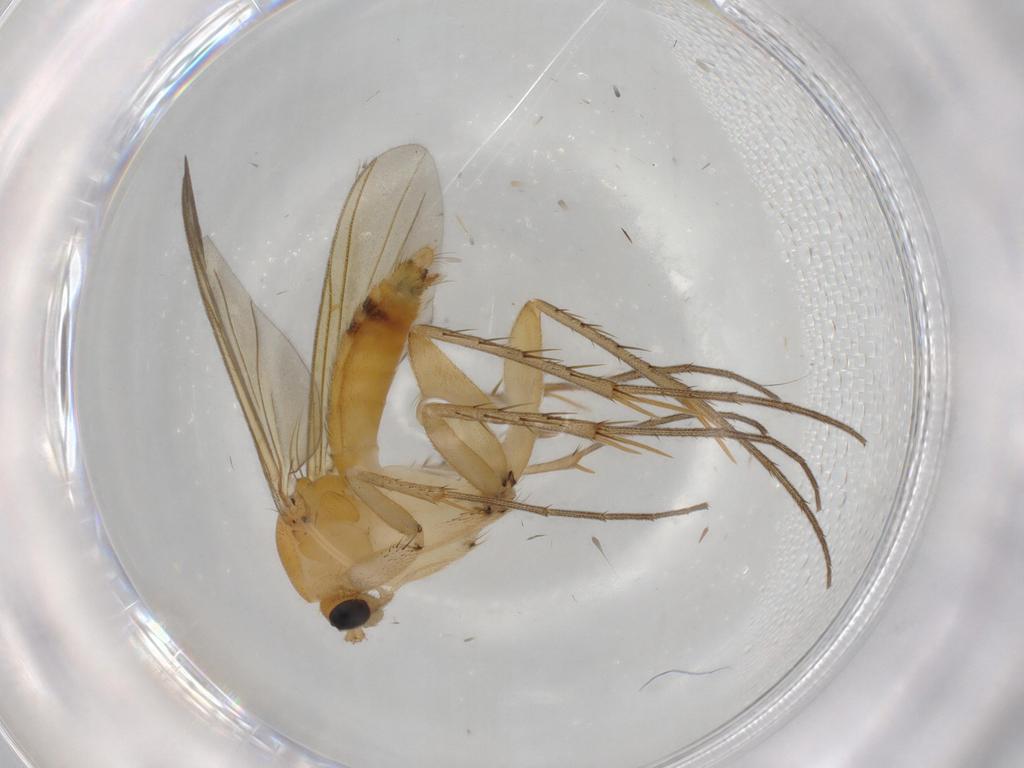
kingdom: Animalia
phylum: Arthropoda
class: Insecta
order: Diptera
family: Mycetophilidae
